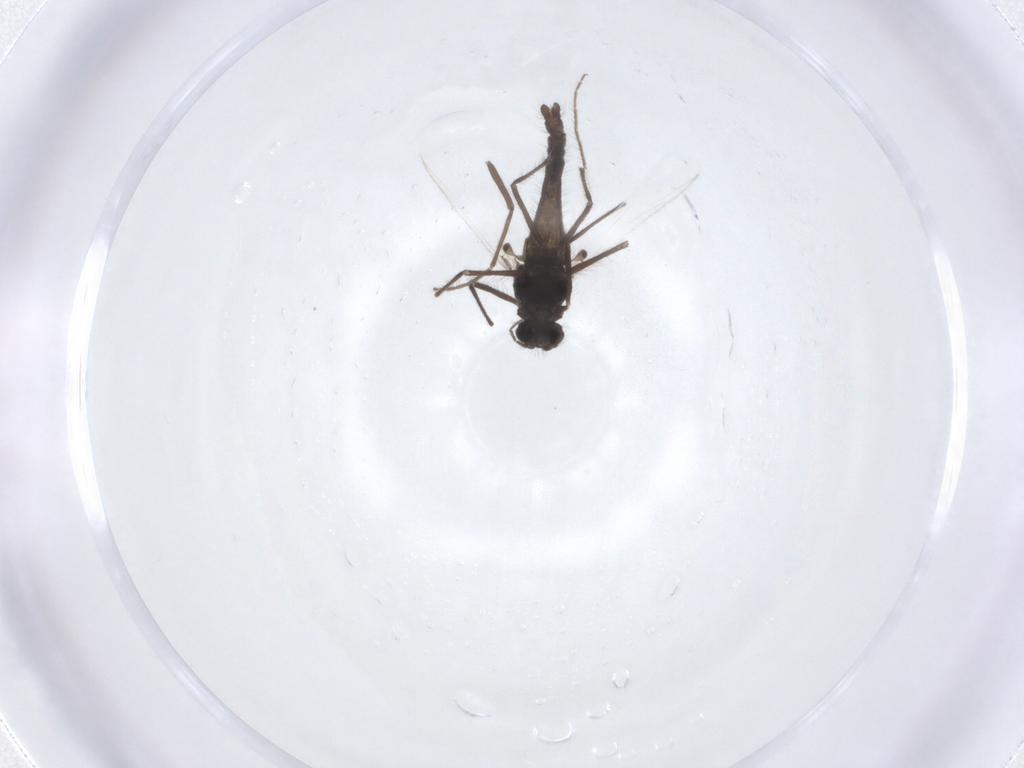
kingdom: Animalia
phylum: Arthropoda
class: Insecta
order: Diptera
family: Chironomidae
